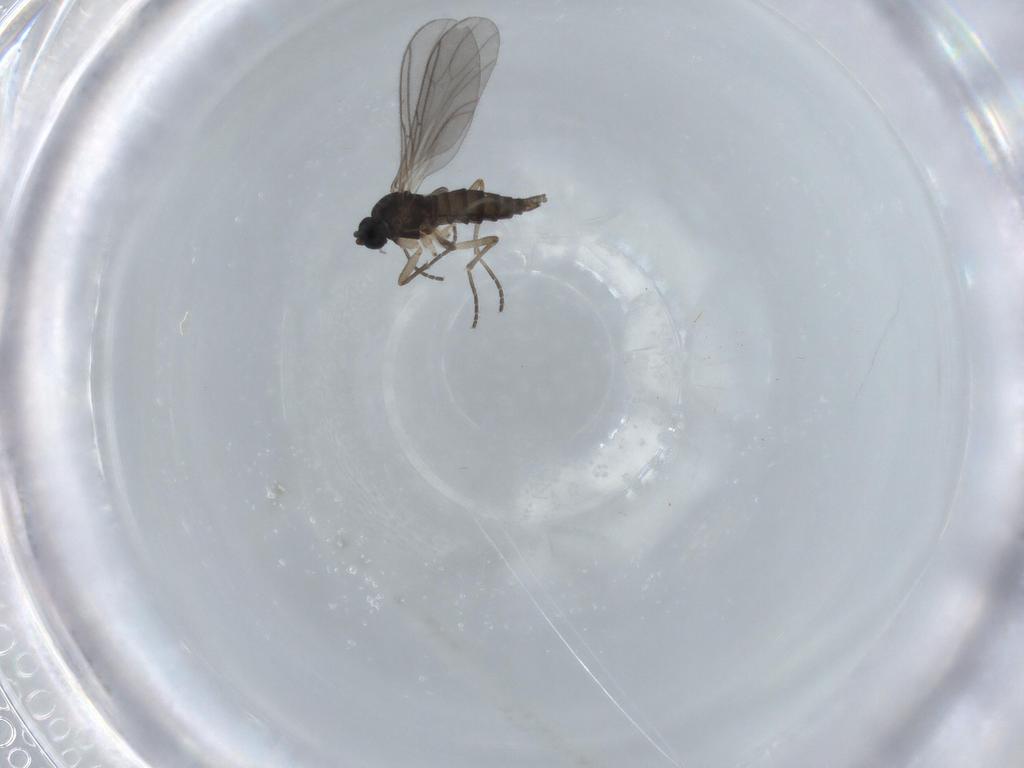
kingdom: Animalia
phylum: Arthropoda
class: Insecta
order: Diptera
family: Sciaridae
